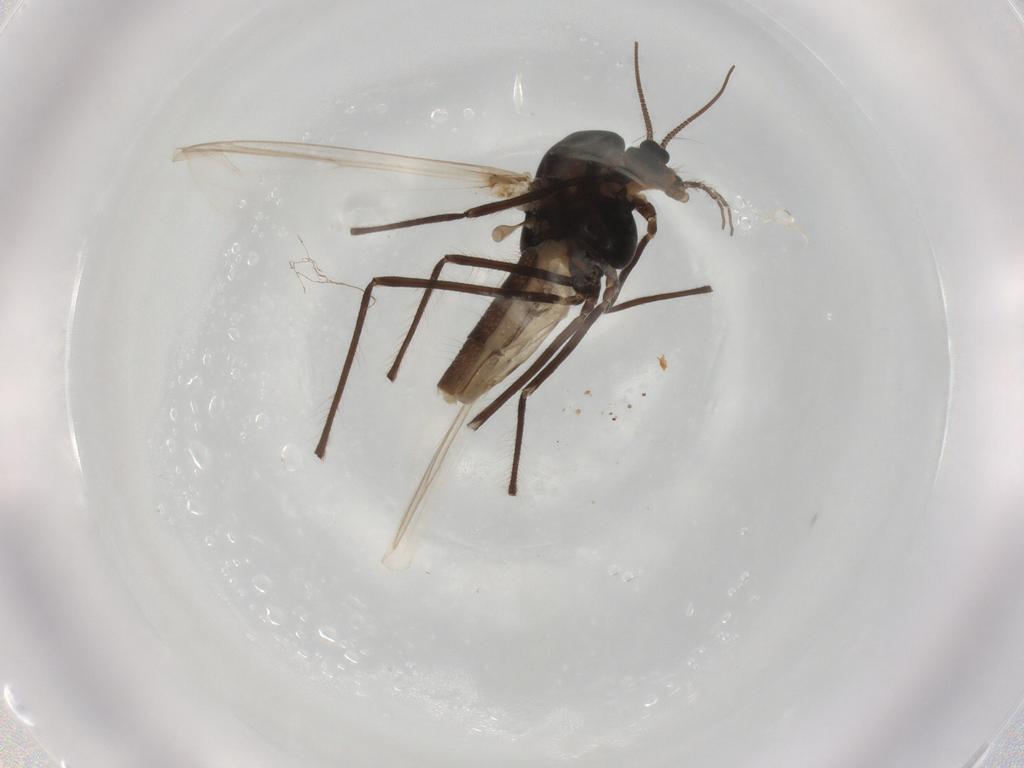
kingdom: Animalia
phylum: Arthropoda
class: Insecta
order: Diptera
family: Chironomidae
